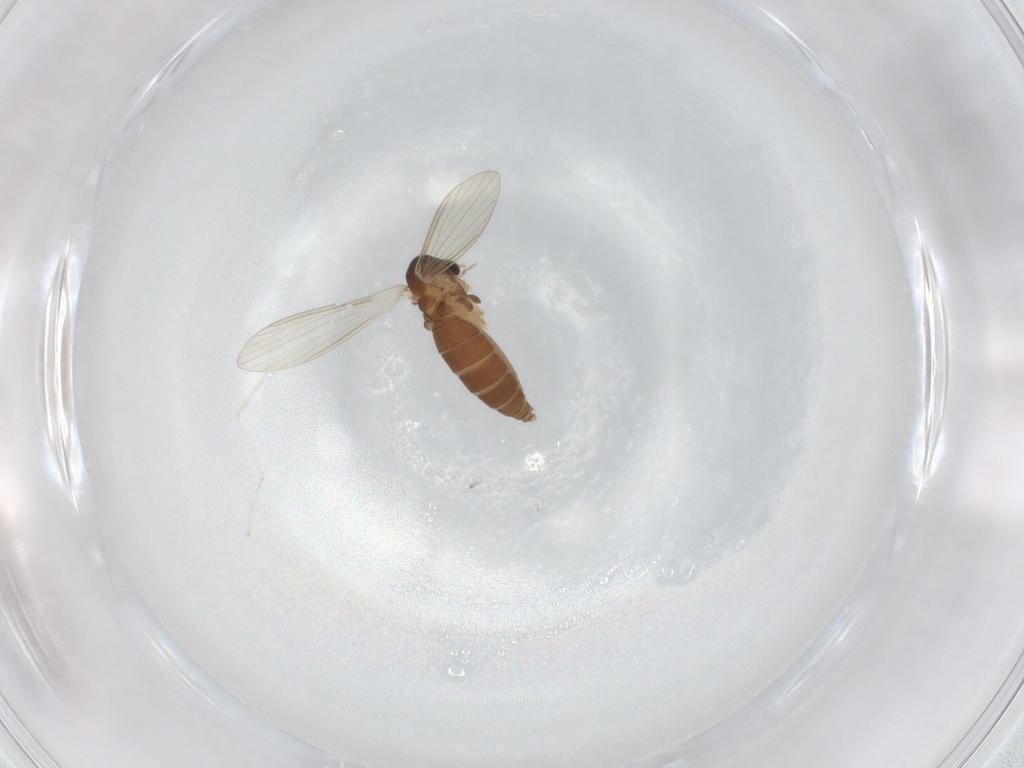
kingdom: Animalia
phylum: Arthropoda
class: Insecta
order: Diptera
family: Psychodidae
